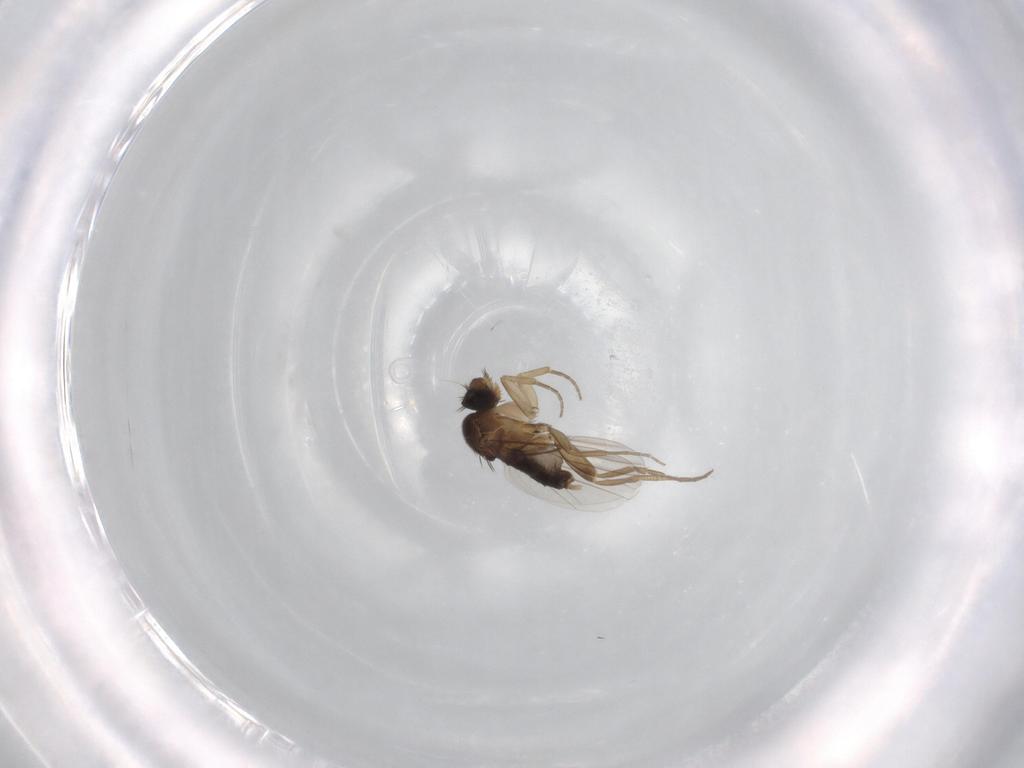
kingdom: Animalia
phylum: Arthropoda
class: Insecta
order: Diptera
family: Phoridae
